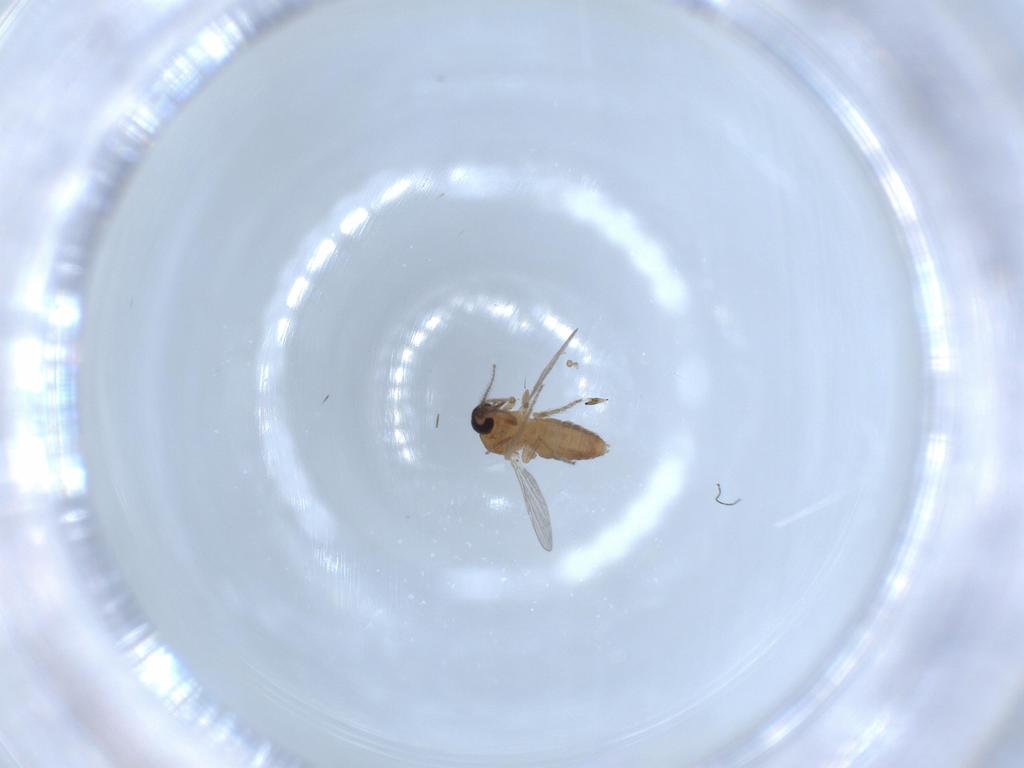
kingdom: Animalia
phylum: Arthropoda
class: Insecta
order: Diptera
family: Ceratopogonidae
